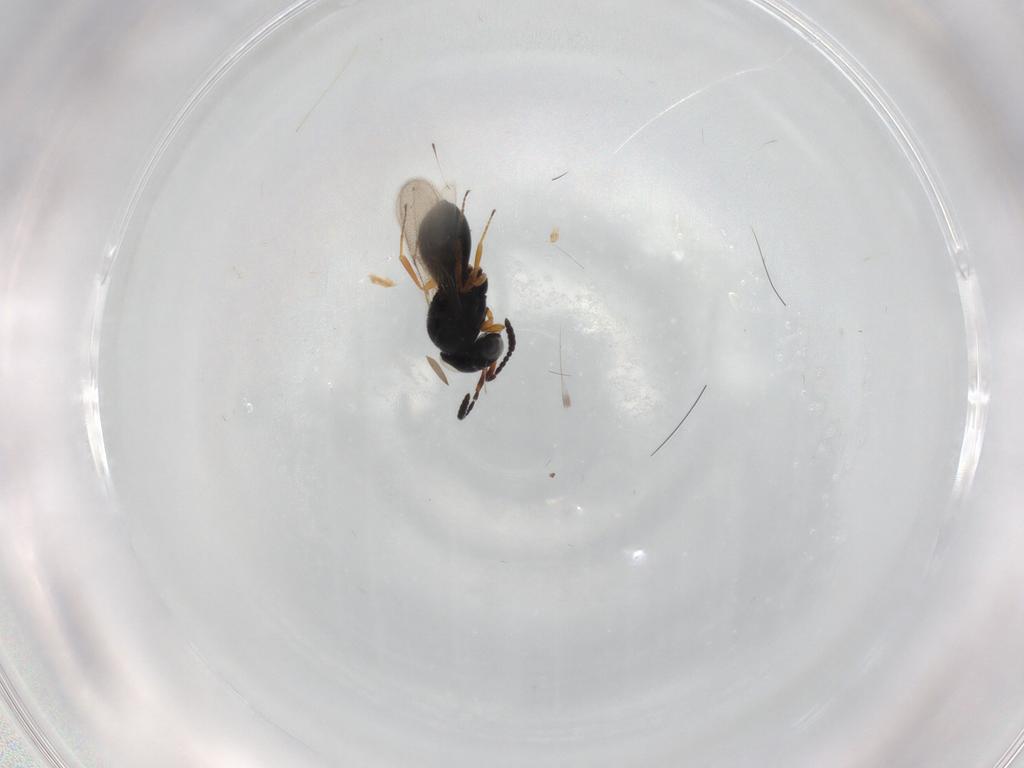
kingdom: Animalia
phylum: Arthropoda
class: Insecta
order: Hymenoptera
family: Scelionidae
